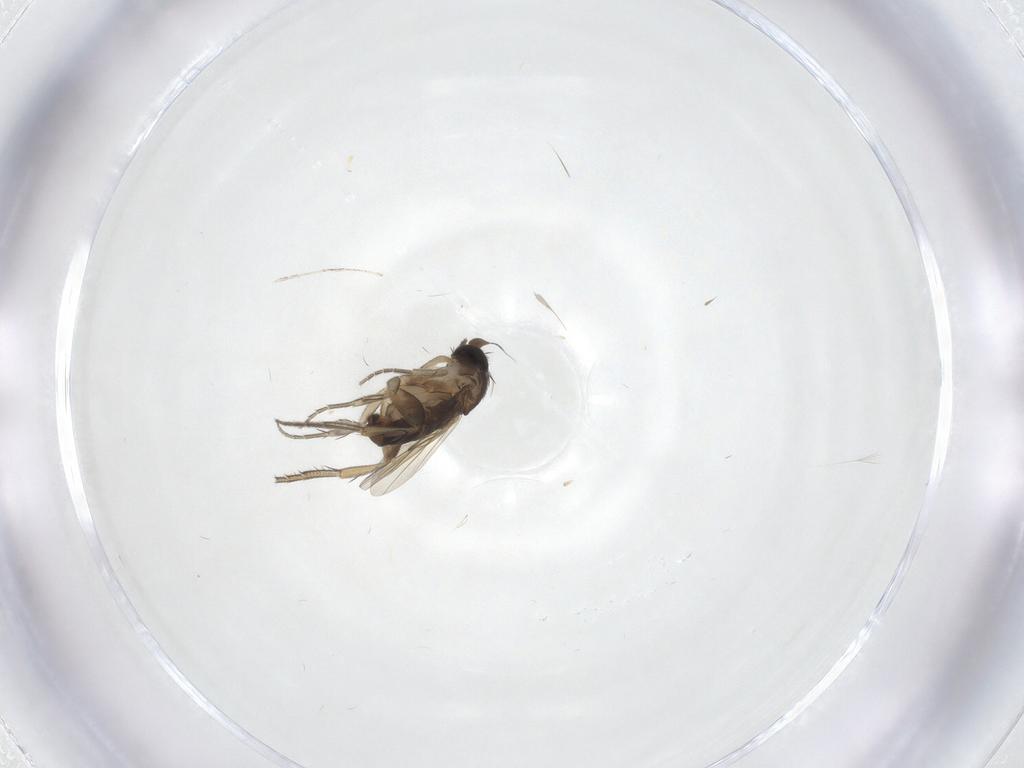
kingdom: Animalia
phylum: Arthropoda
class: Insecta
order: Diptera
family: Phoridae
